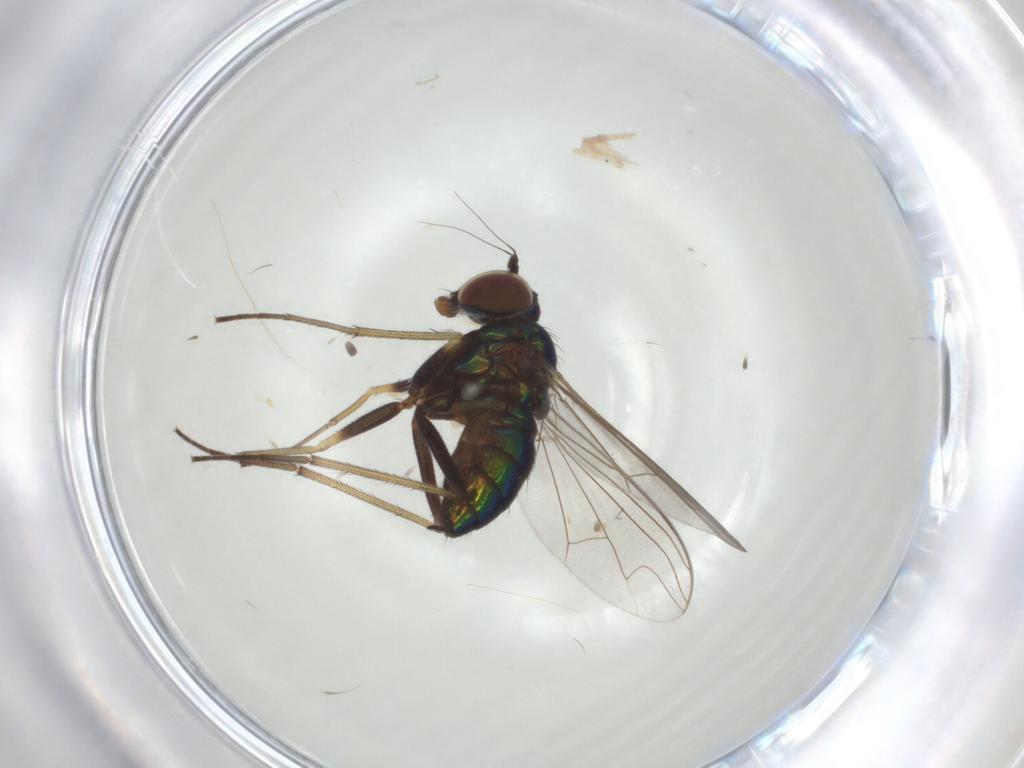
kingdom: Animalia
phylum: Arthropoda
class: Insecta
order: Diptera
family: Dolichopodidae
